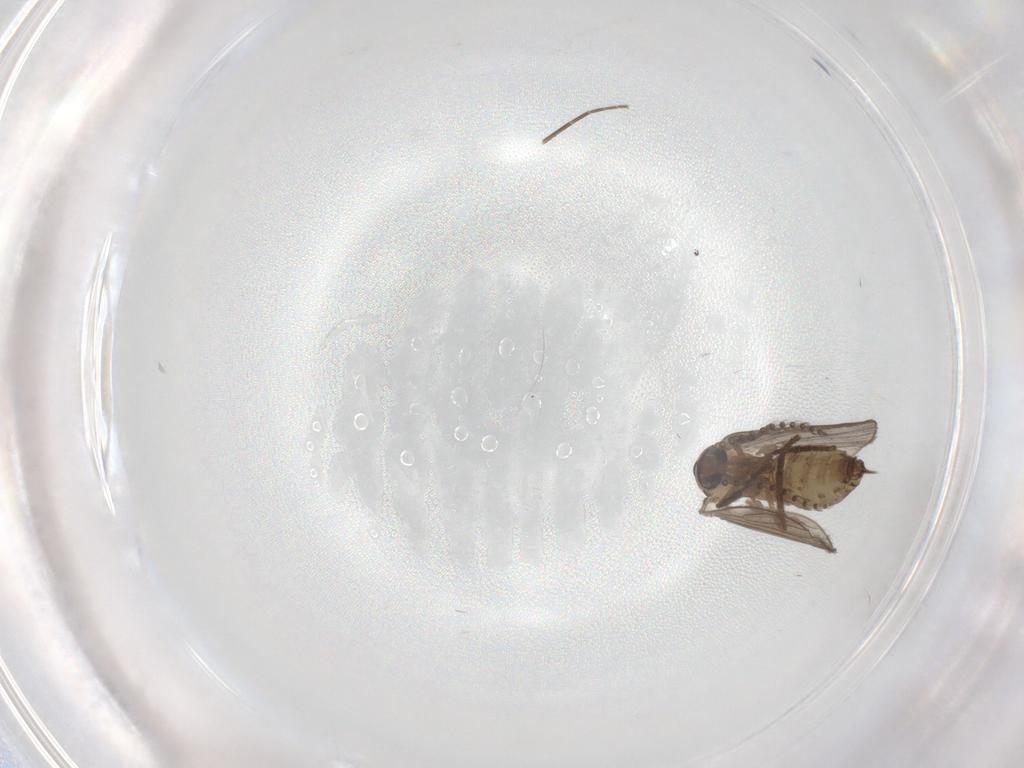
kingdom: Animalia
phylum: Arthropoda
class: Insecta
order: Diptera
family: Psychodidae
